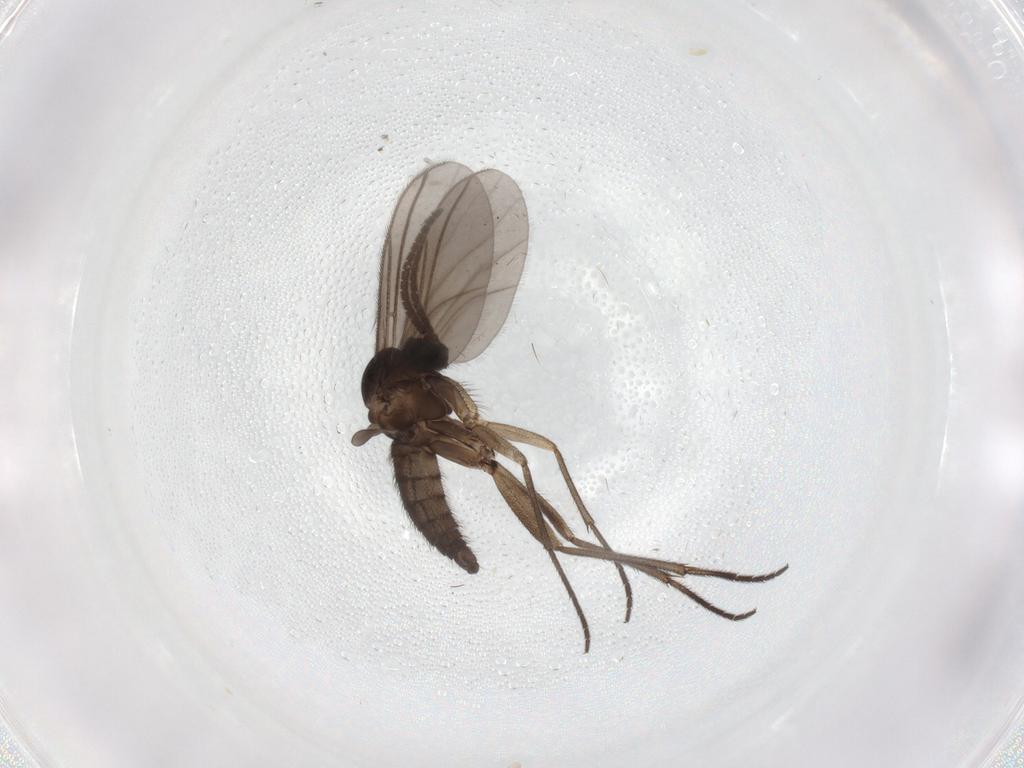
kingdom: Animalia
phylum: Arthropoda
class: Insecta
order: Diptera
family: Sciaridae
